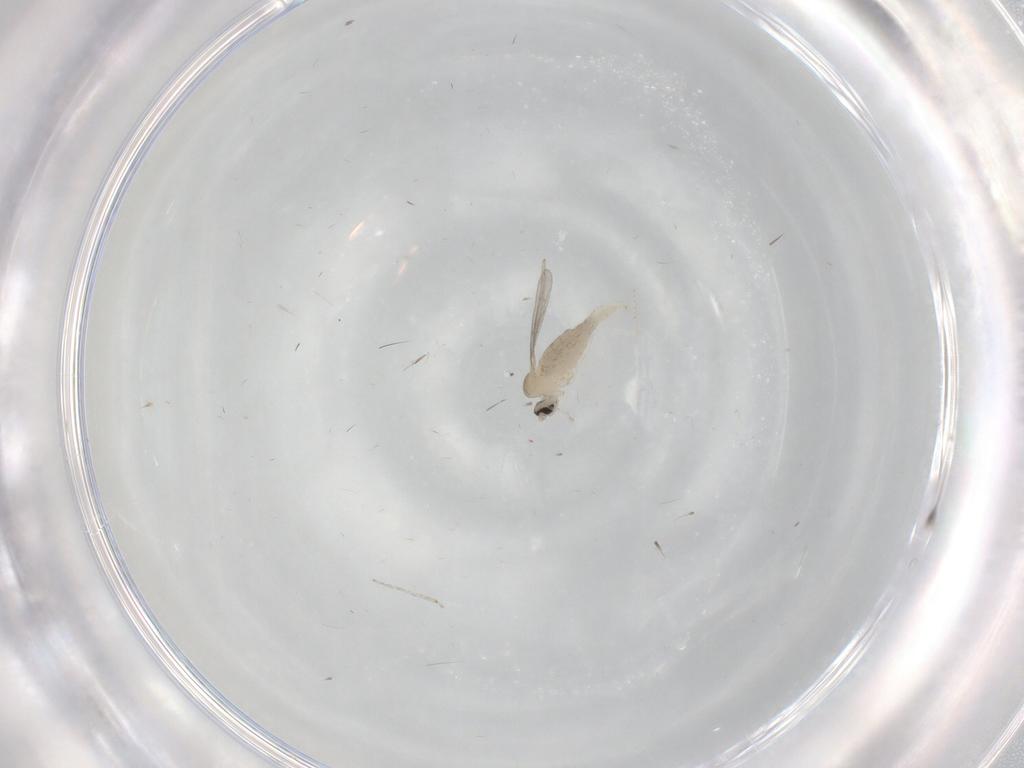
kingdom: Animalia
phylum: Arthropoda
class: Insecta
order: Diptera
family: Cecidomyiidae
